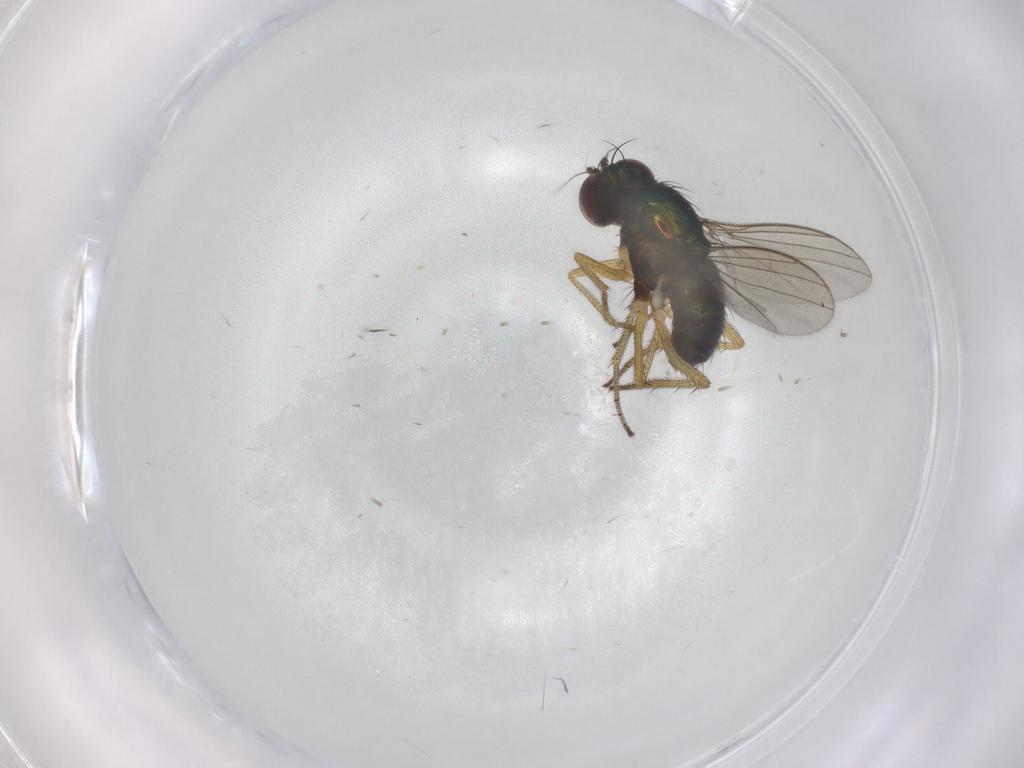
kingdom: Animalia
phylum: Arthropoda
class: Insecta
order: Diptera
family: Dolichopodidae
